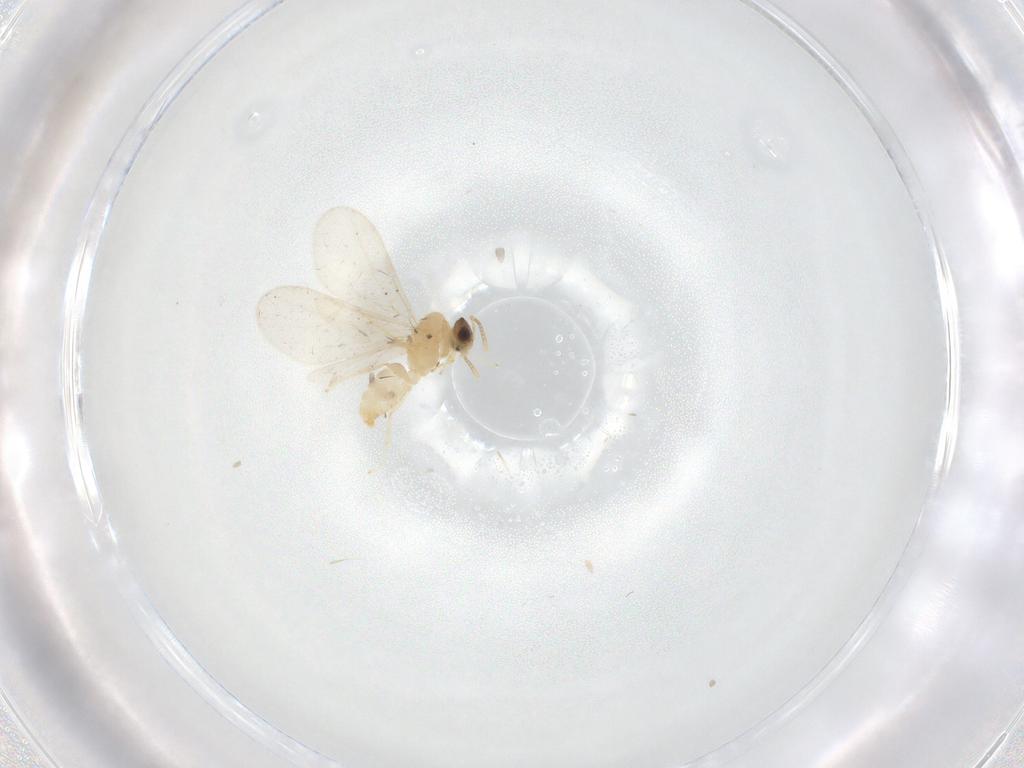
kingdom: Animalia
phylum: Arthropoda
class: Insecta
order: Hymenoptera
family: Formicidae
